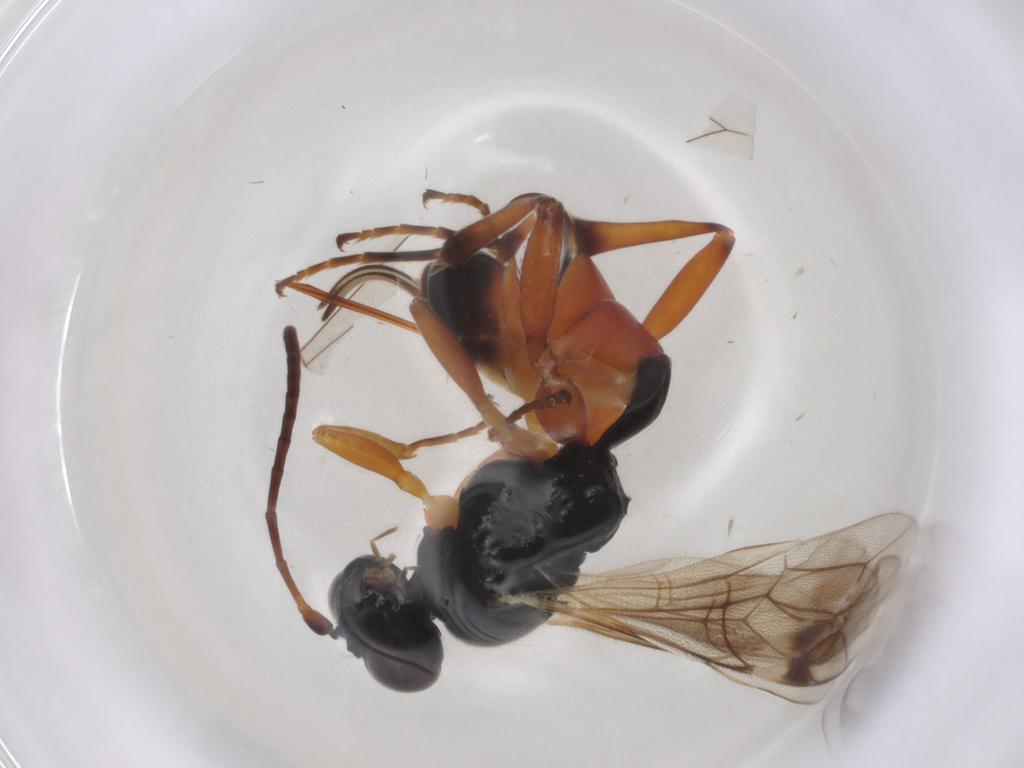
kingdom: Animalia
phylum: Arthropoda
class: Insecta
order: Hymenoptera
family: Ichneumonidae
